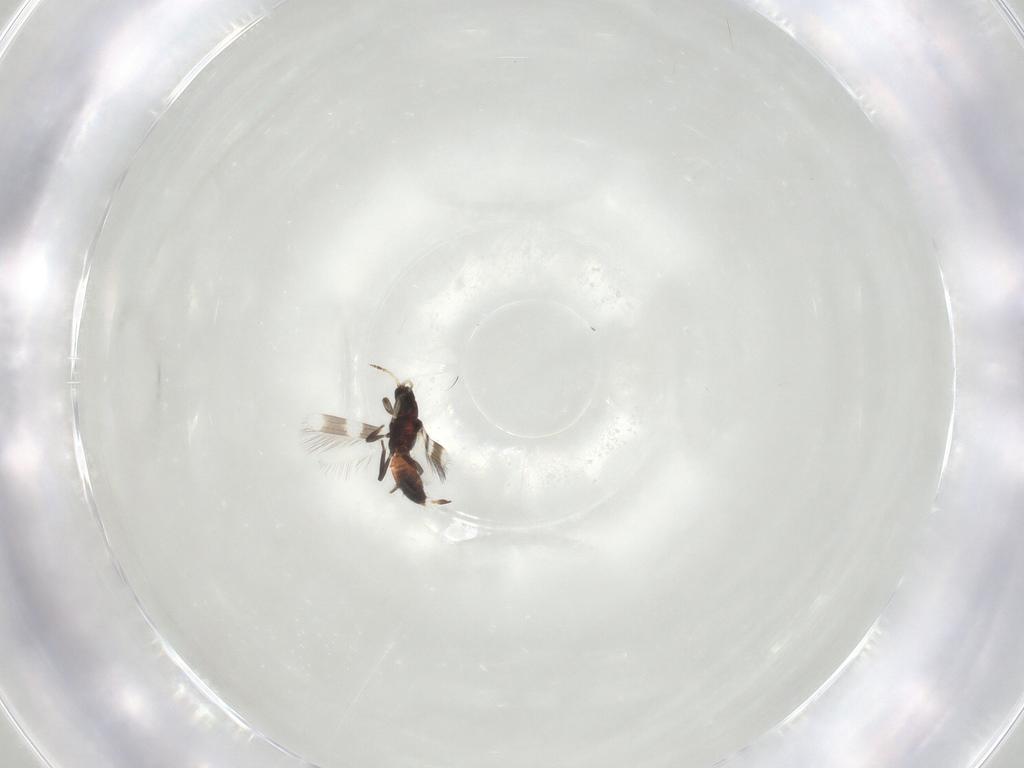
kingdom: Animalia
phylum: Arthropoda
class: Insecta
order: Thysanoptera
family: Aeolothripidae
